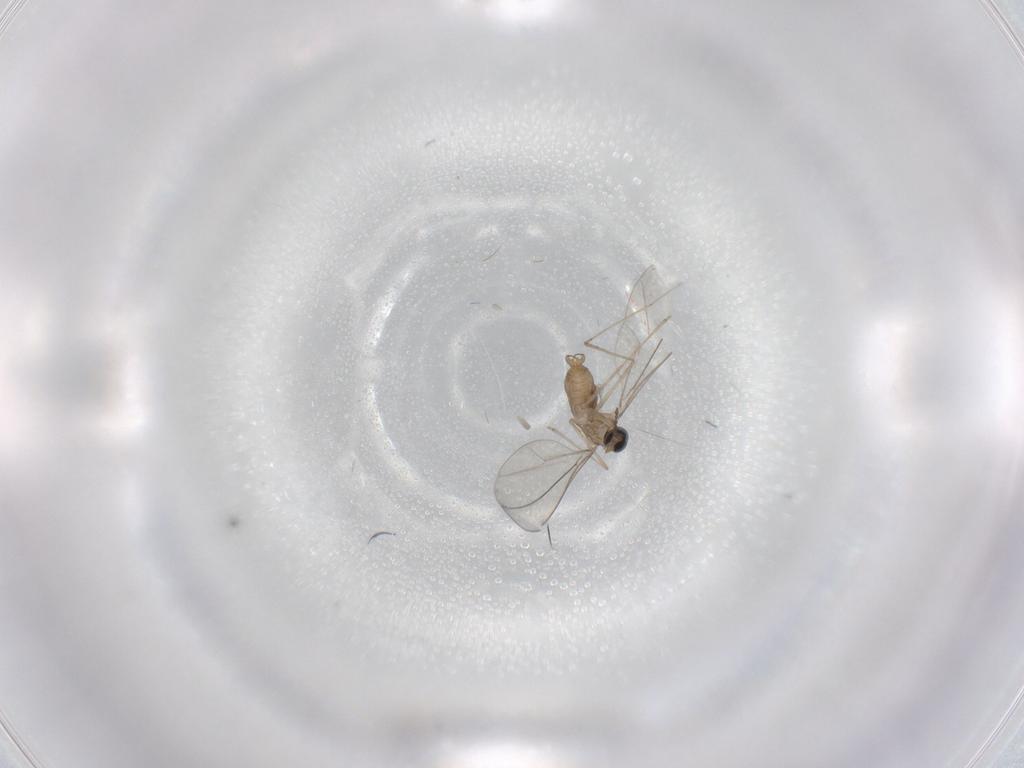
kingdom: Animalia
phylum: Arthropoda
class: Insecta
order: Diptera
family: Cecidomyiidae
